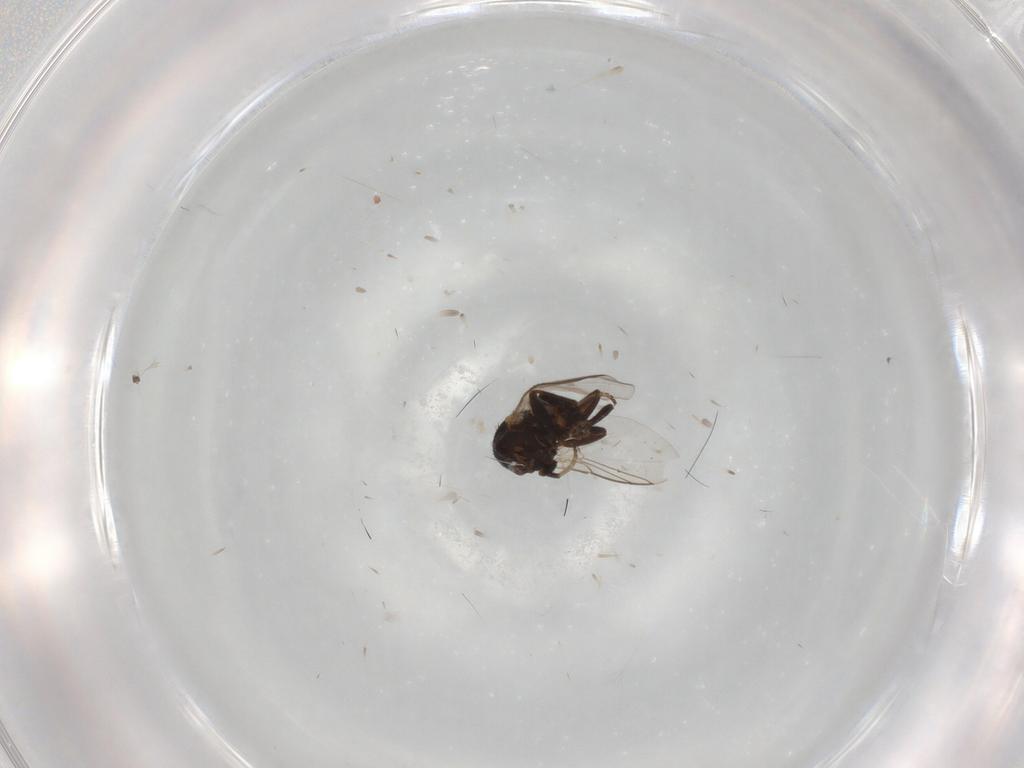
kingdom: Animalia
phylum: Arthropoda
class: Insecta
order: Diptera
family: Agromyzidae
